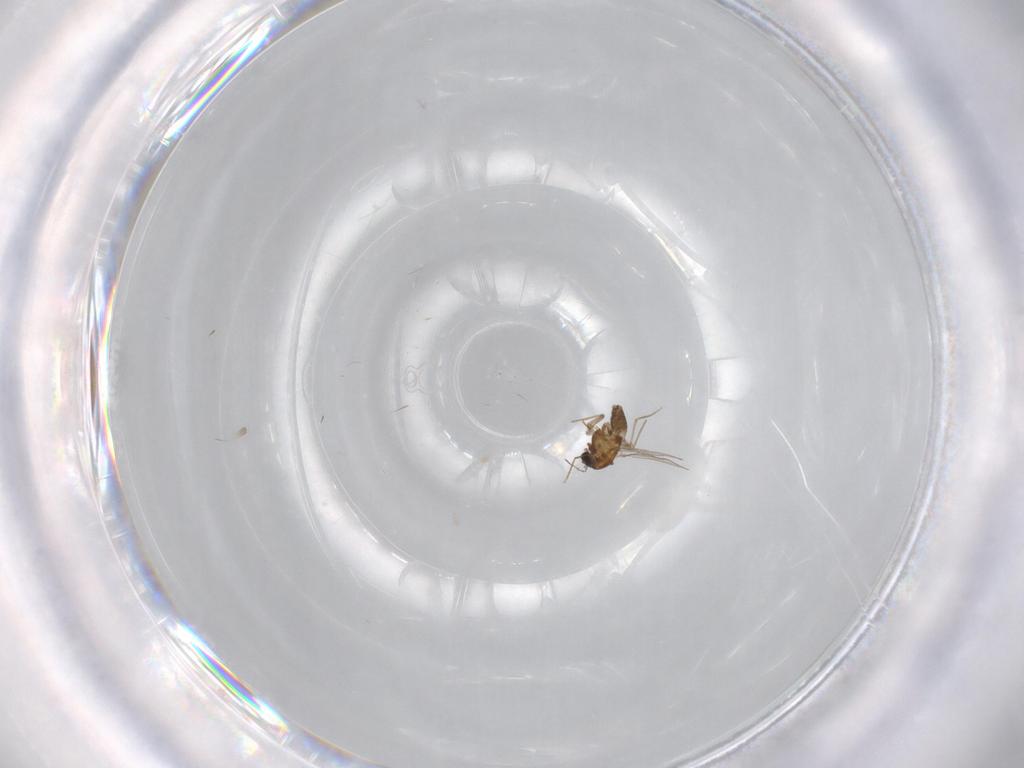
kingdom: Animalia
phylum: Arthropoda
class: Insecta
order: Diptera
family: Chironomidae
